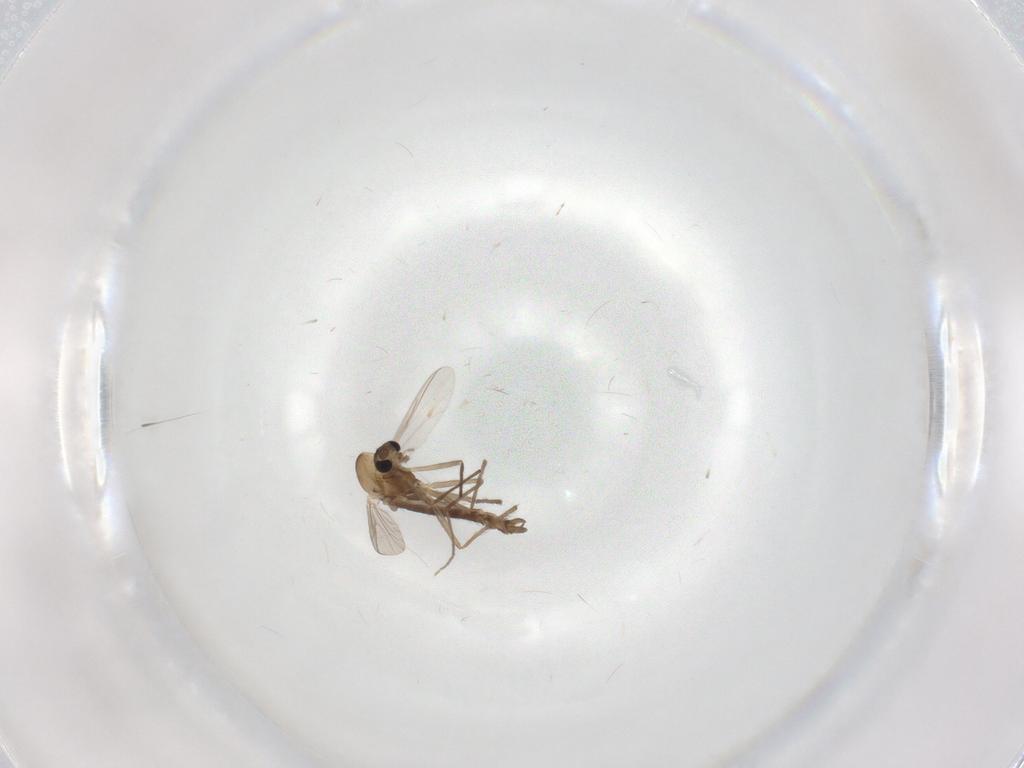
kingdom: Animalia
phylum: Arthropoda
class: Insecta
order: Diptera
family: Chironomidae
